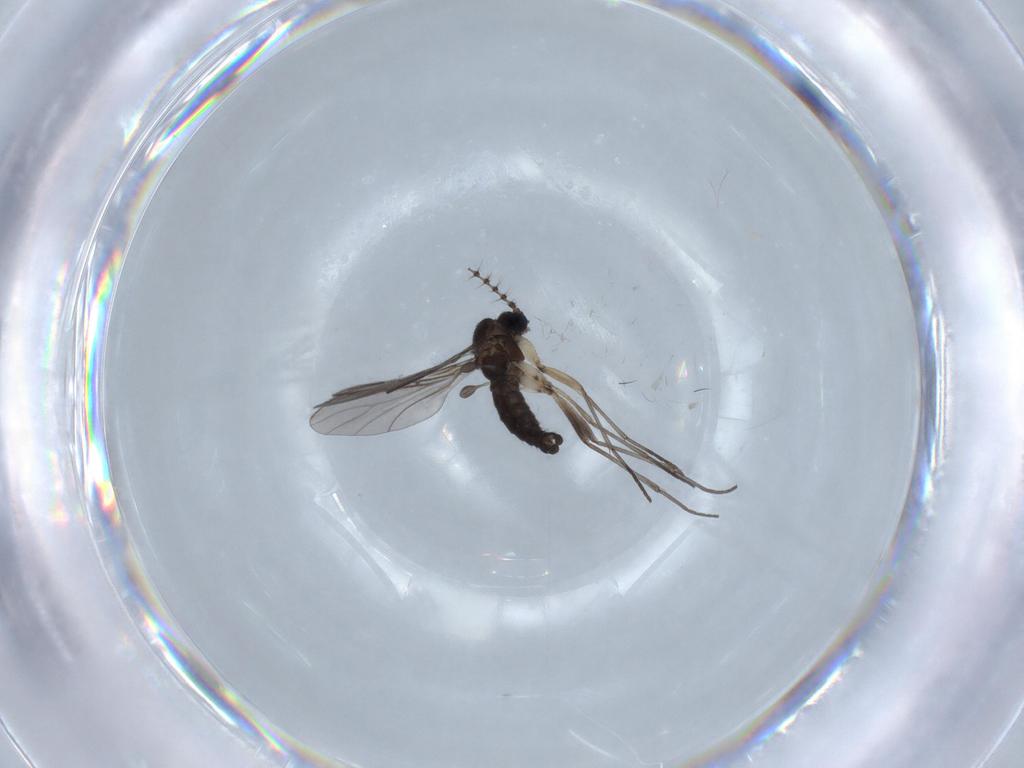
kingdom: Animalia
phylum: Arthropoda
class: Insecta
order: Diptera
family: Sciaridae
